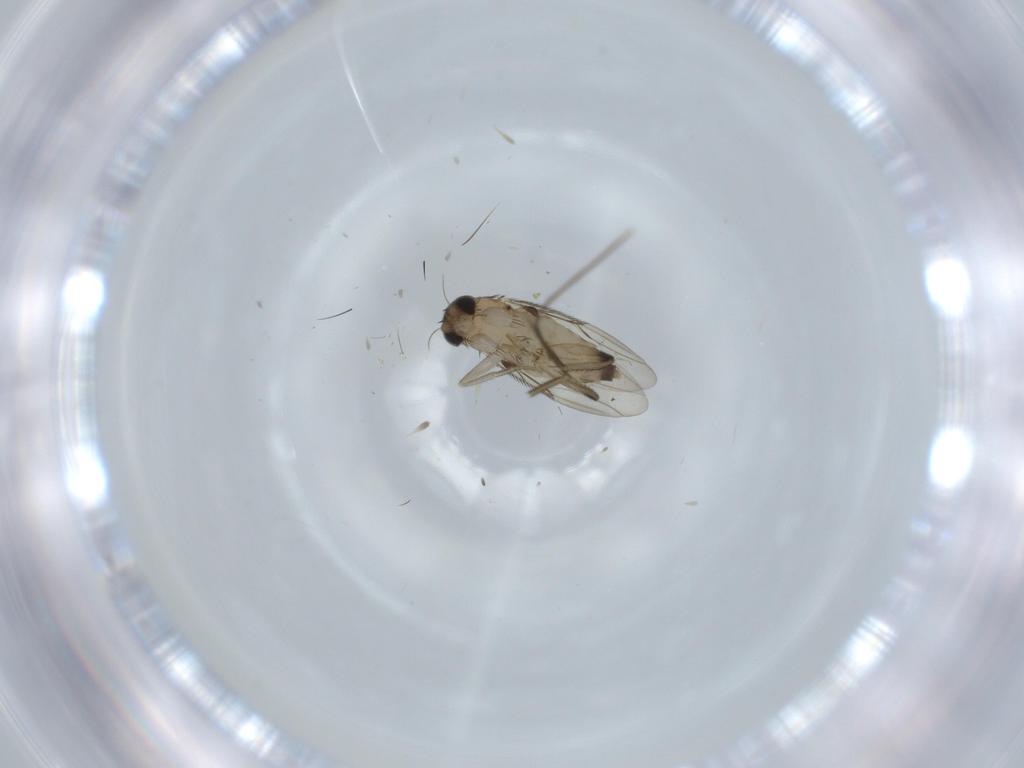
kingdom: Animalia
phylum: Arthropoda
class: Insecta
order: Diptera
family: Phoridae
